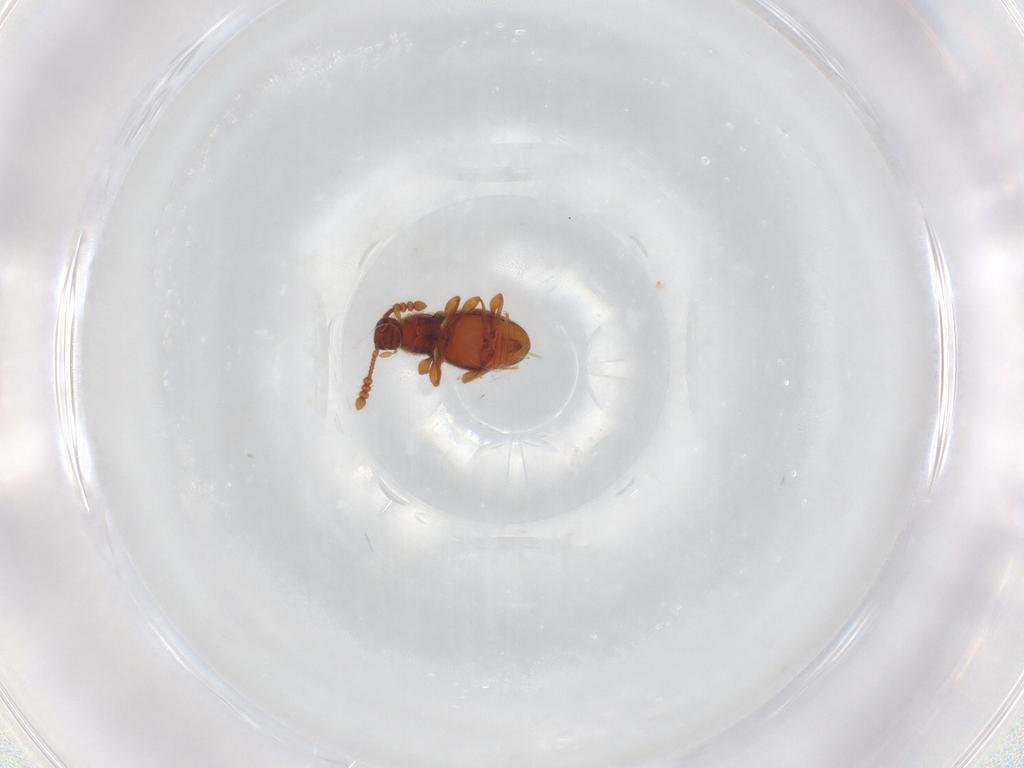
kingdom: Animalia
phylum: Arthropoda
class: Insecta
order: Coleoptera
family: Staphylinidae
